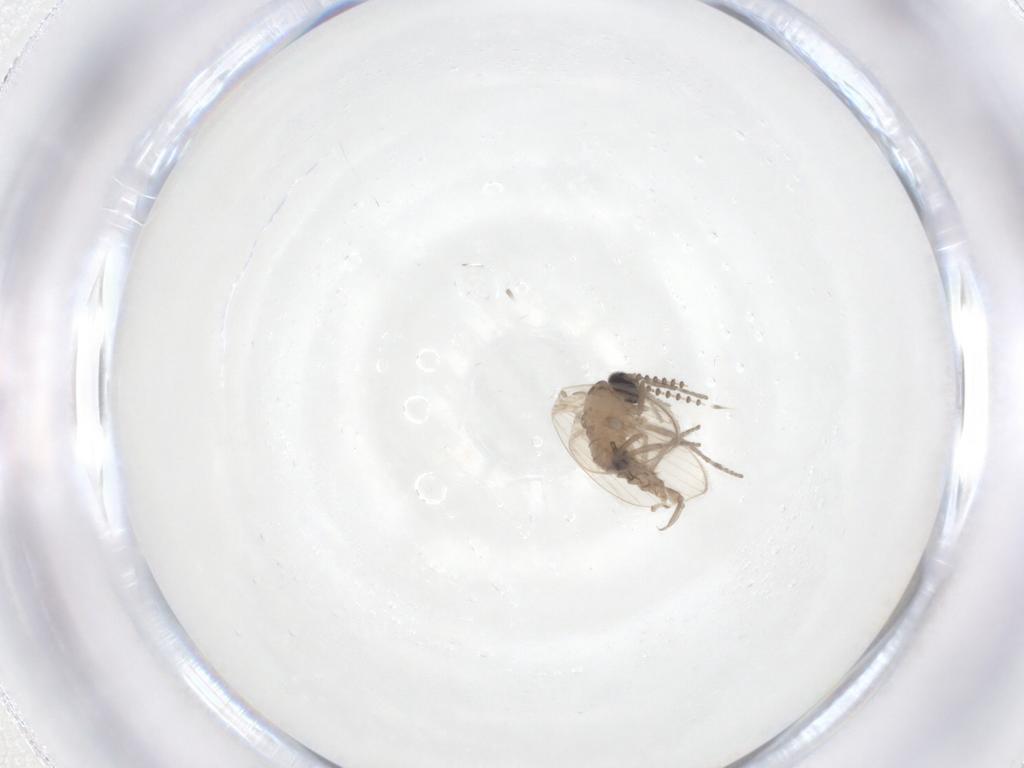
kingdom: Animalia
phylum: Arthropoda
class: Insecta
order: Diptera
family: Psychodidae
